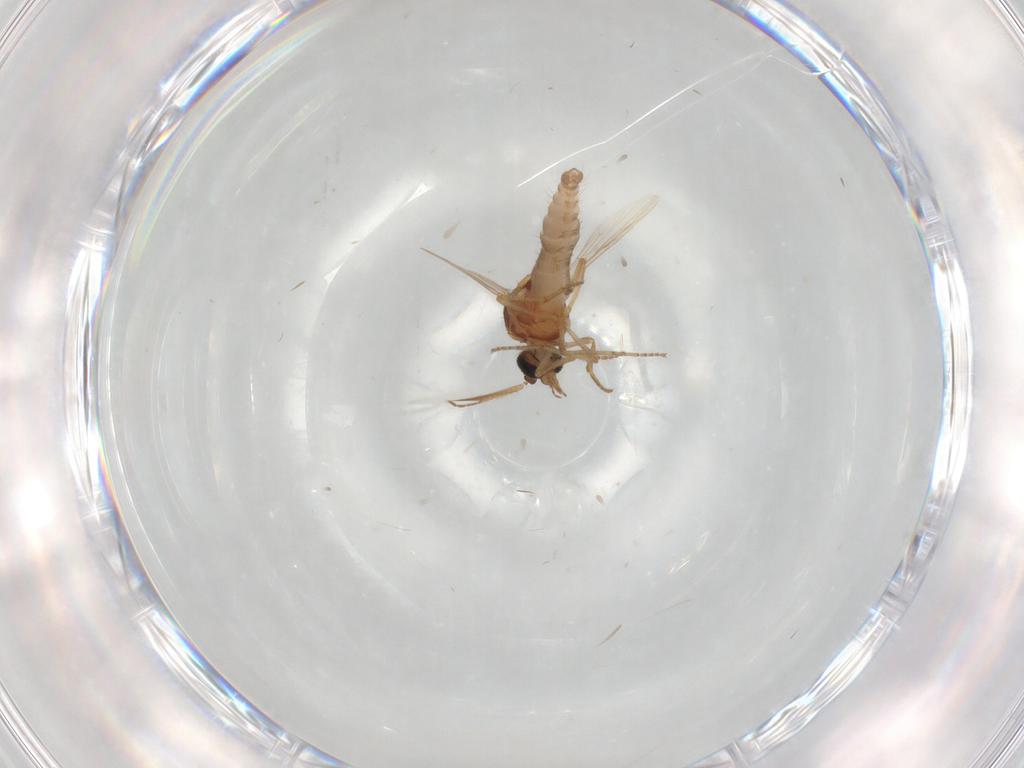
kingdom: Animalia
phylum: Arthropoda
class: Insecta
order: Diptera
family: Ceratopogonidae
